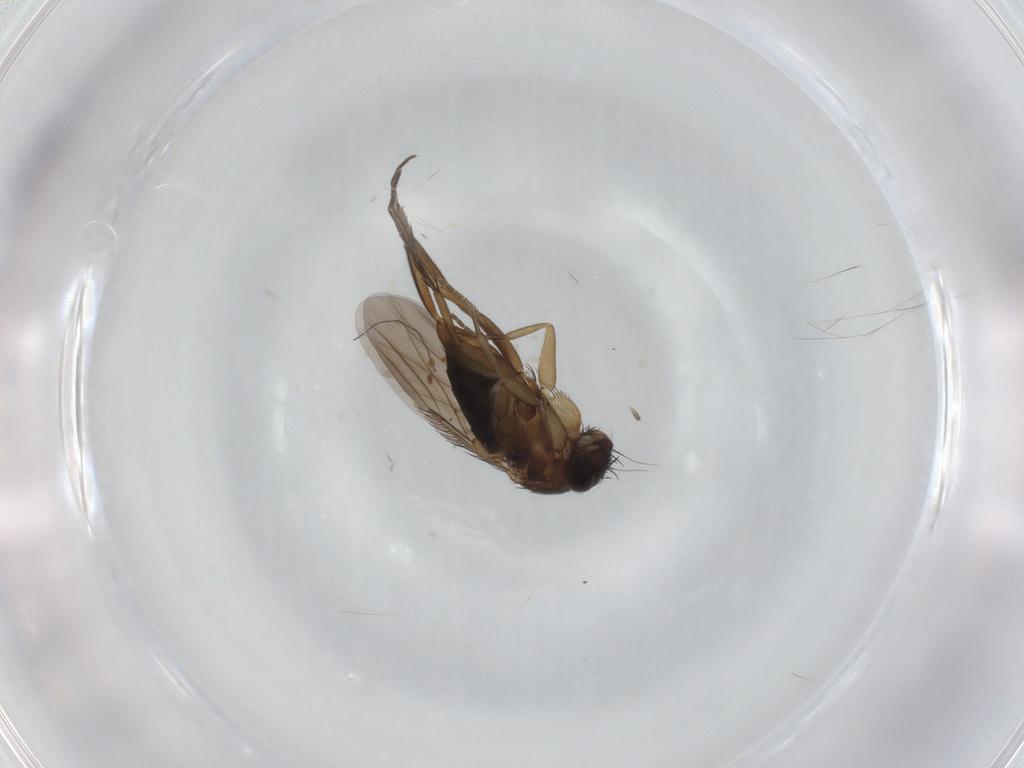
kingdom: Animalia
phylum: Arthropoda
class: Insecta
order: Diptera
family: Phoridae
